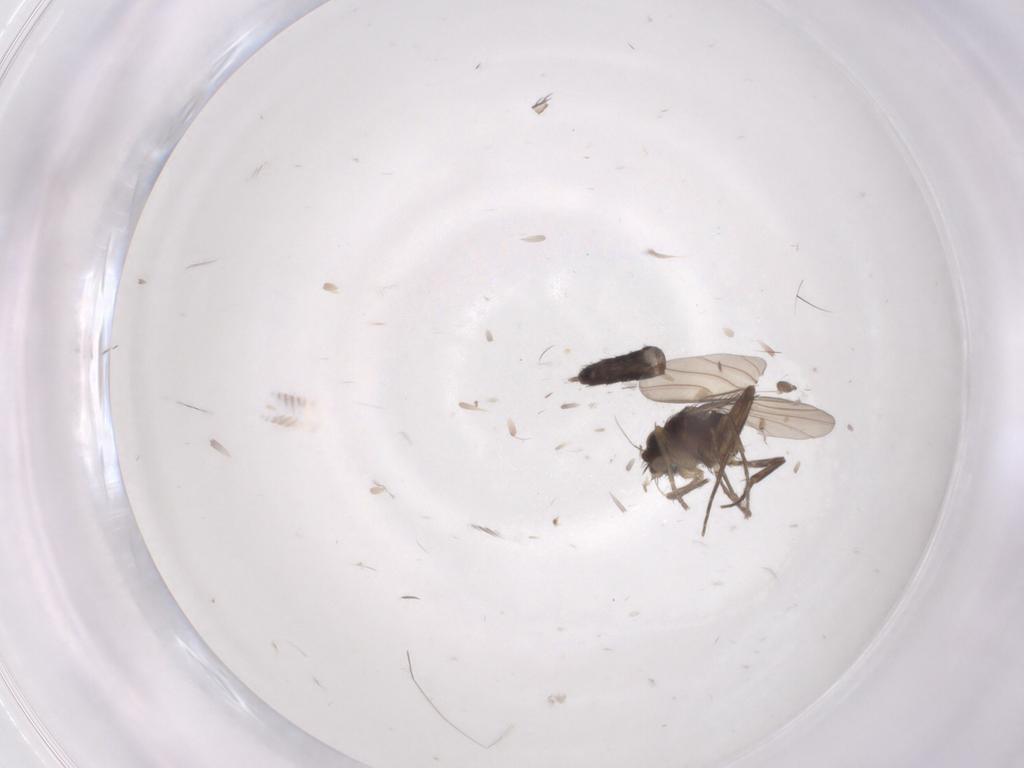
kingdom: Animalia
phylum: Arthropoda
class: Insecta
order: Diptera
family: Phoridae
